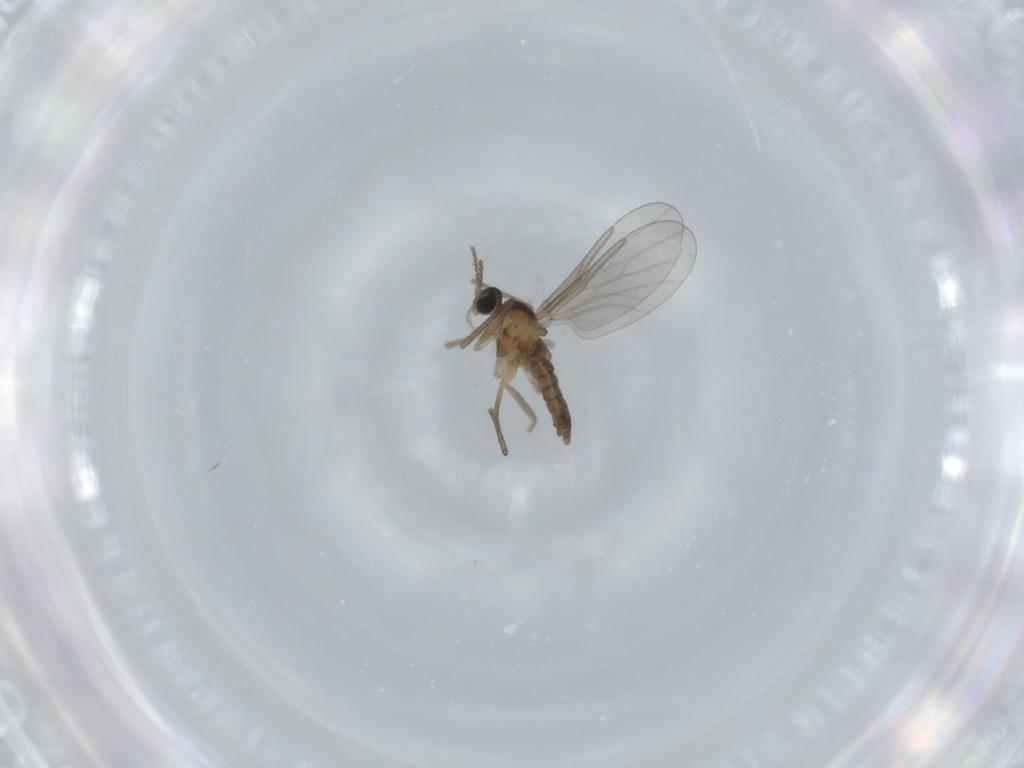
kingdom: Animalia
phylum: Arthropoda
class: Insecta
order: Diptera
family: Cecidomyiidae
